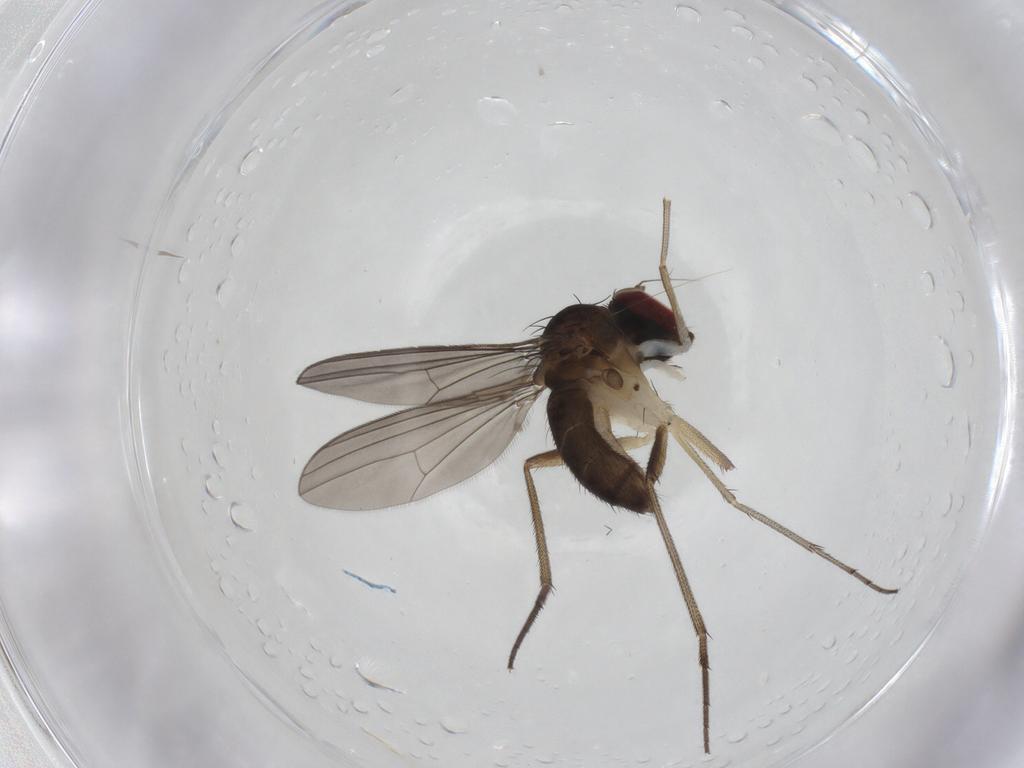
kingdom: Animalia
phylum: Arthropoda
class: Insecta
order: Diptera
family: Dolichopodidae
